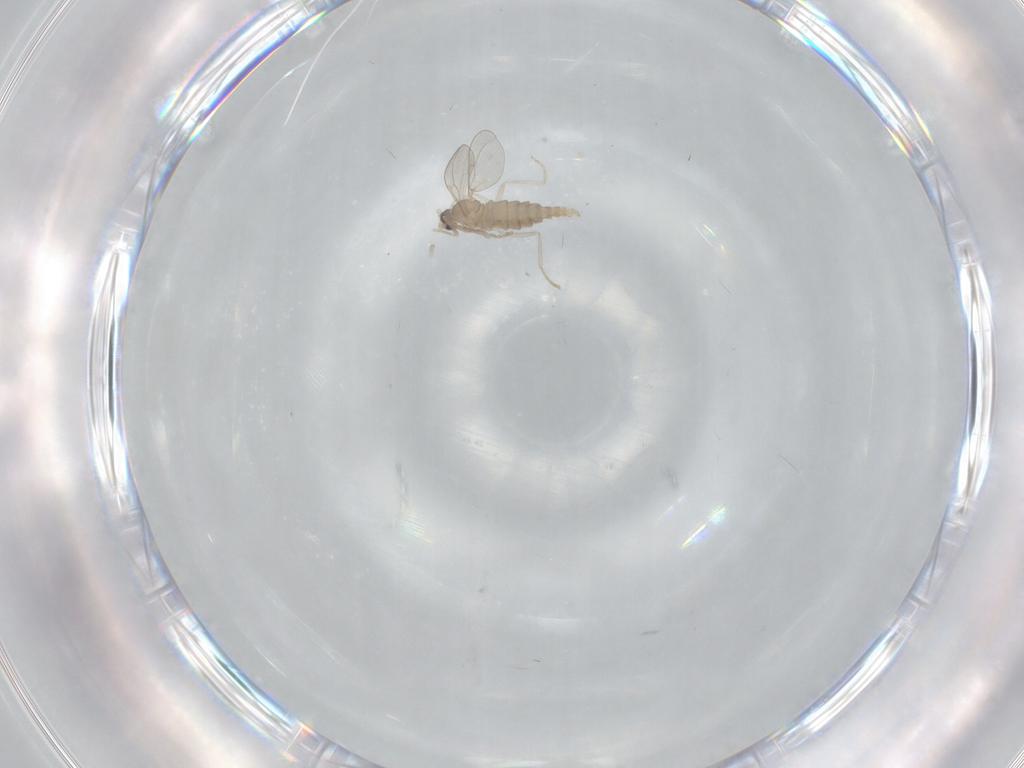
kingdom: Animalia
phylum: Arthropoda
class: Insecta
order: Diptera
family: Cecidomyiidae
